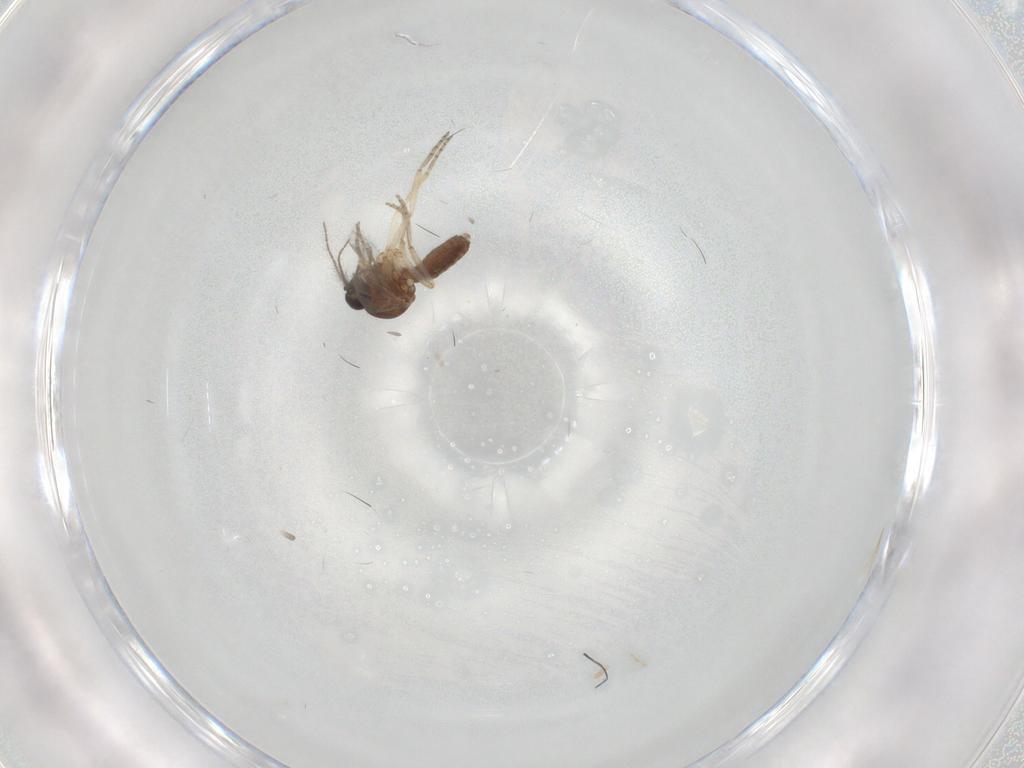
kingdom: Animalia
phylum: Arthropoda
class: Insecta
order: Diptera
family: Ceratopogonidae
